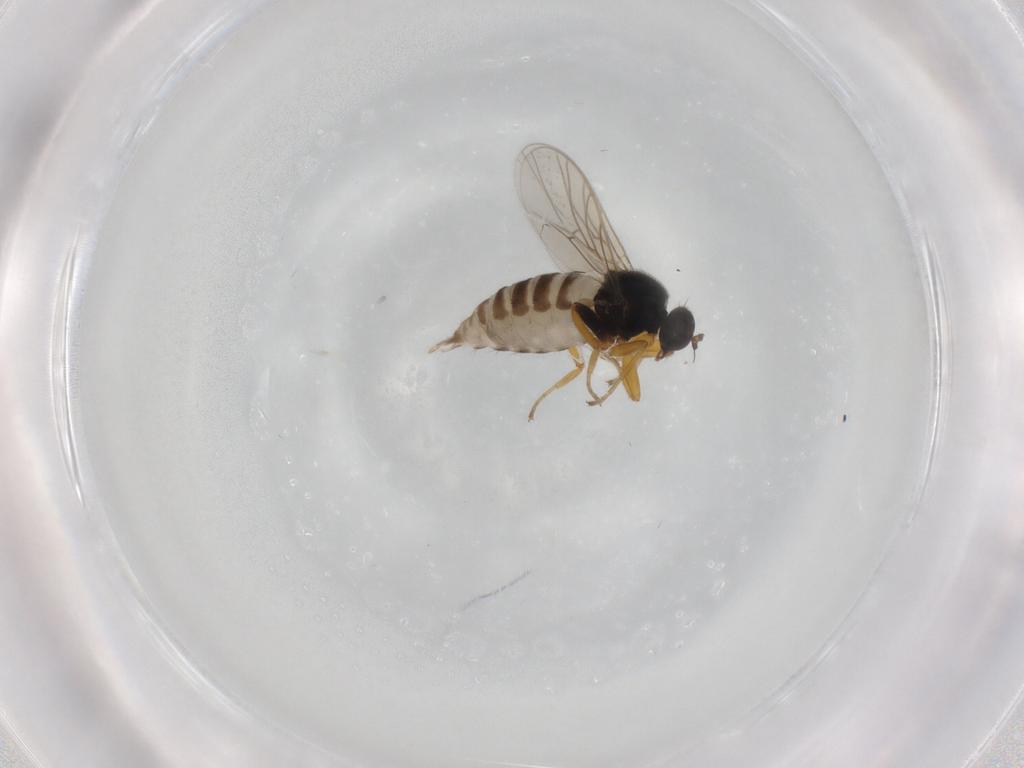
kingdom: Animalia
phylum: Arthropoda
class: Insecta
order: Diptera
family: Hybotidae
